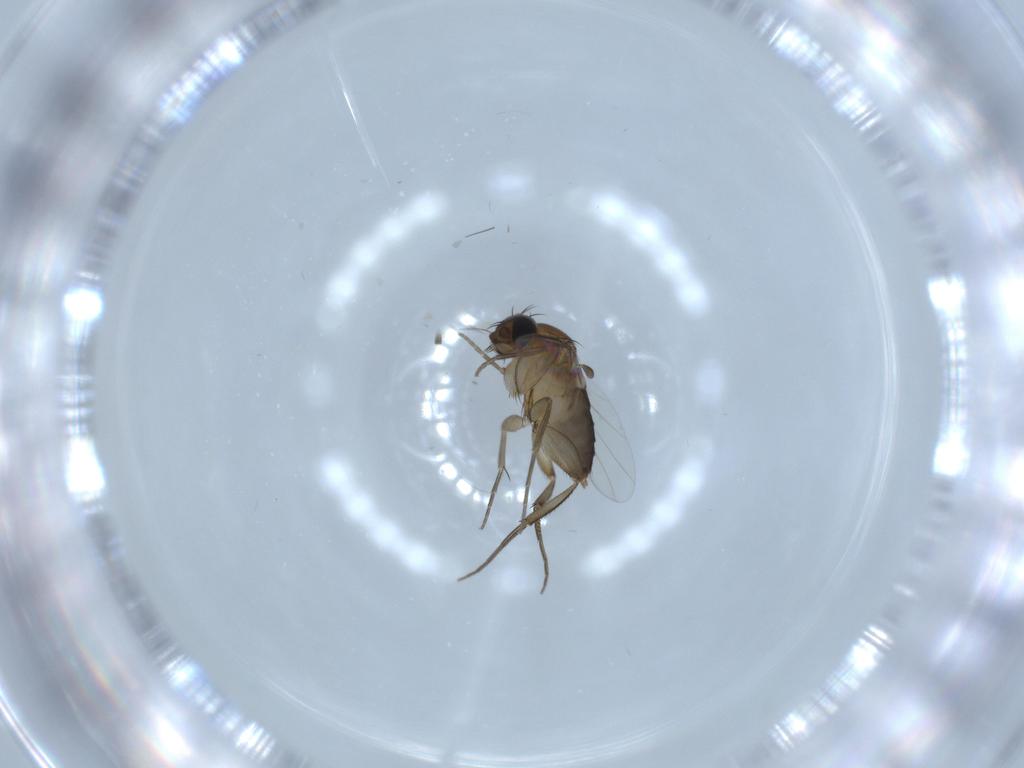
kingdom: Animalia
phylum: Arthropoda
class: Insecta
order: Diptera
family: Phoridae
